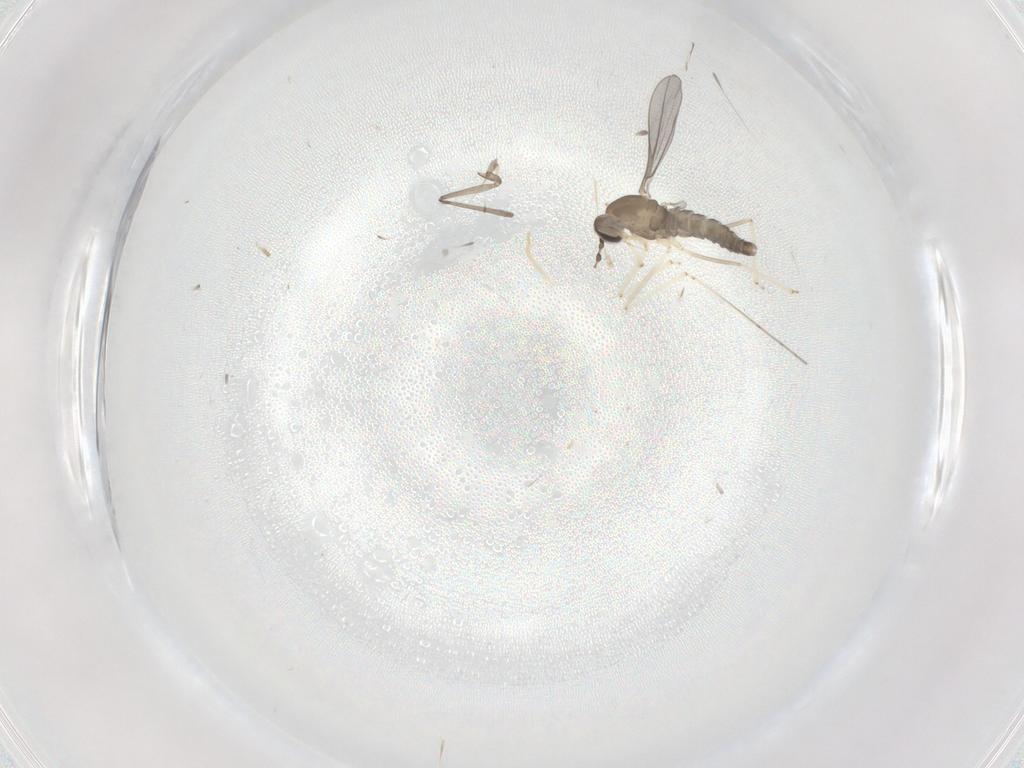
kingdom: Animalia
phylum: Arthropoda
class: Insecta
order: Diptera
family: Cecidomyiidae
